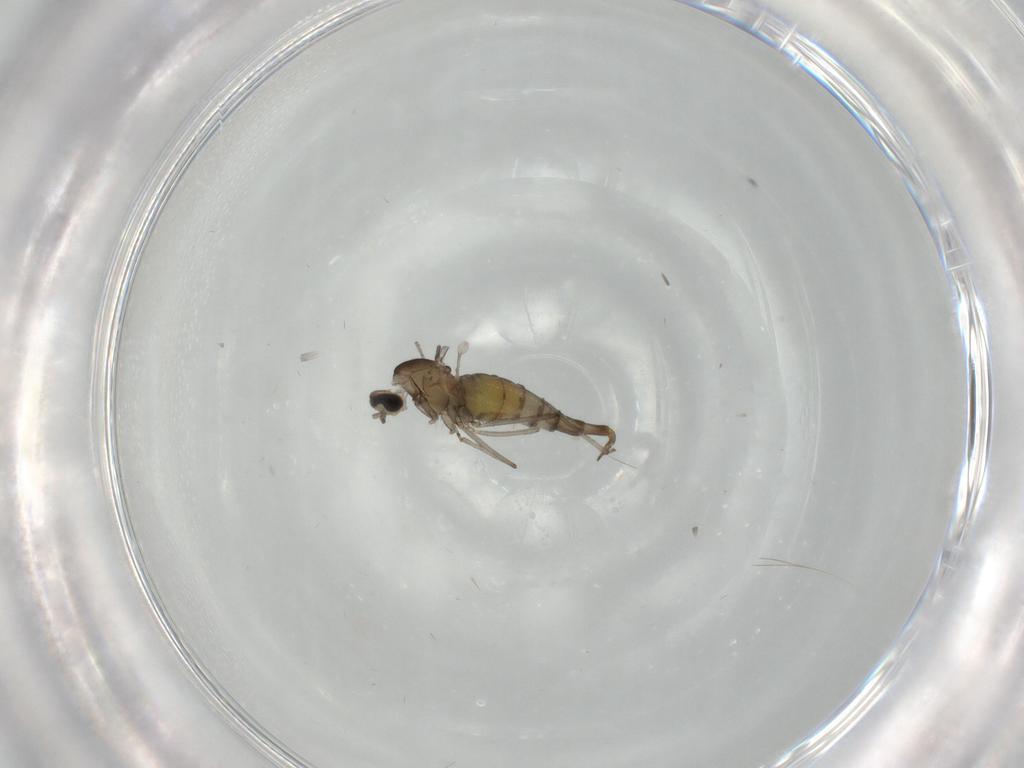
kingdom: Animalia
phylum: Arthropoda
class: Insecta
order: Diptera
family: Cecidomyiidae
